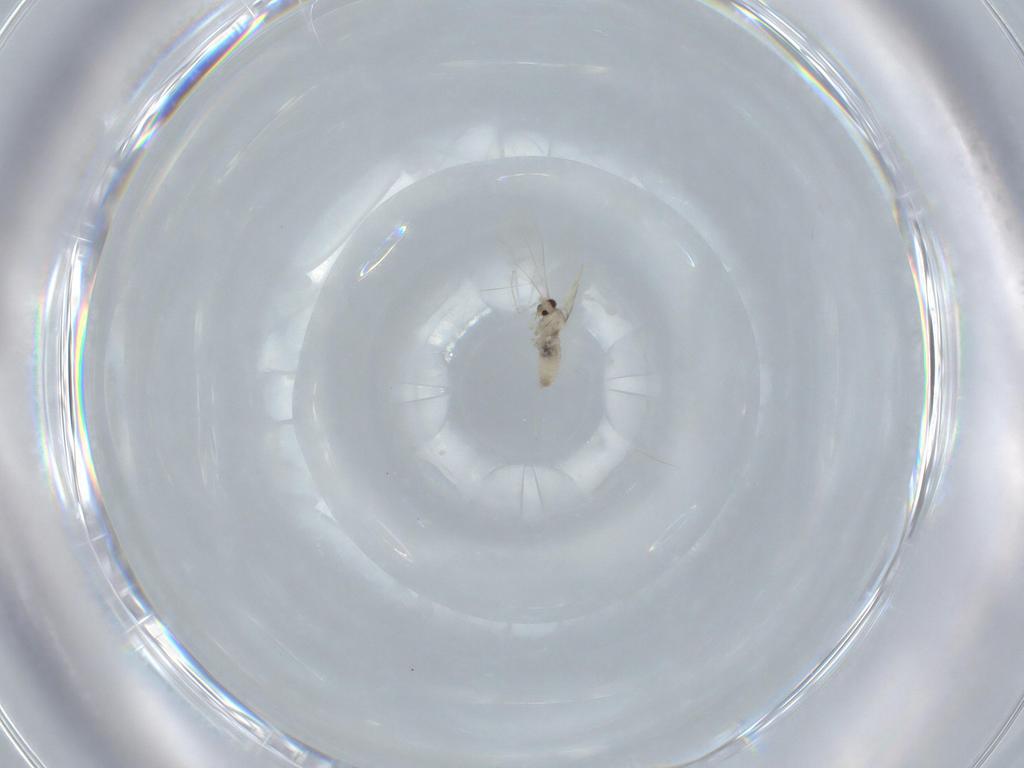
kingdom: Animalia
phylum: Arthropoda
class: Insecta
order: Diptera
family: Cecidomyiidae
